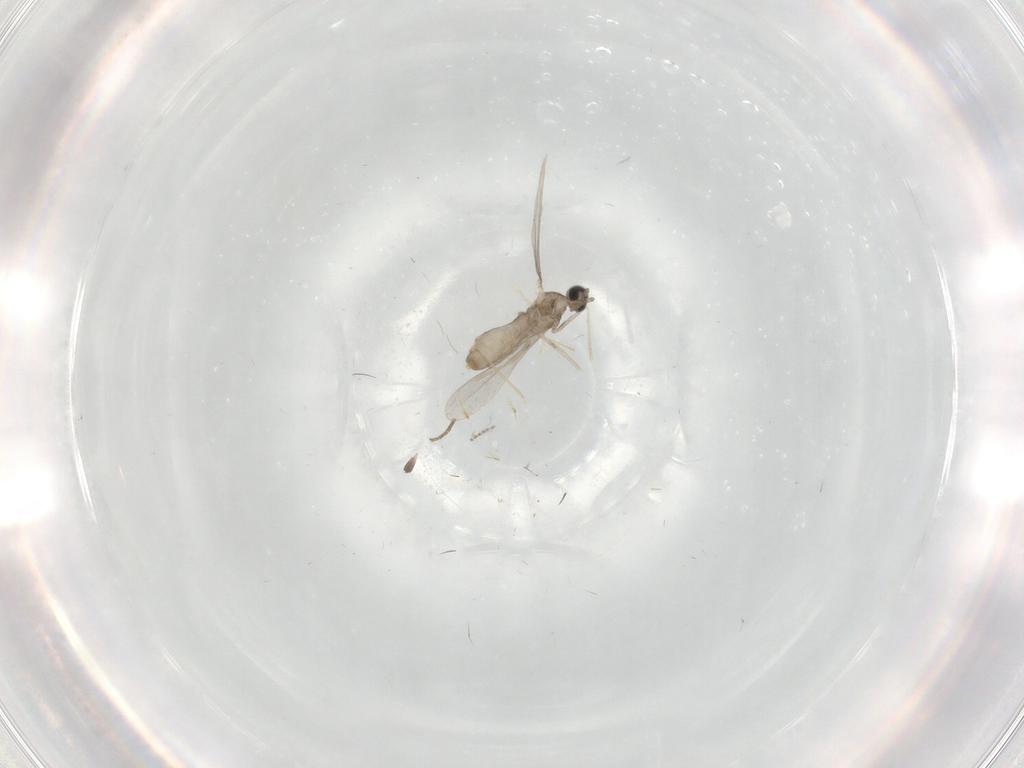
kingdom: Animalia
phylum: Arthropoda
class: Insecta
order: Diptera
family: Cecidomyiidae
